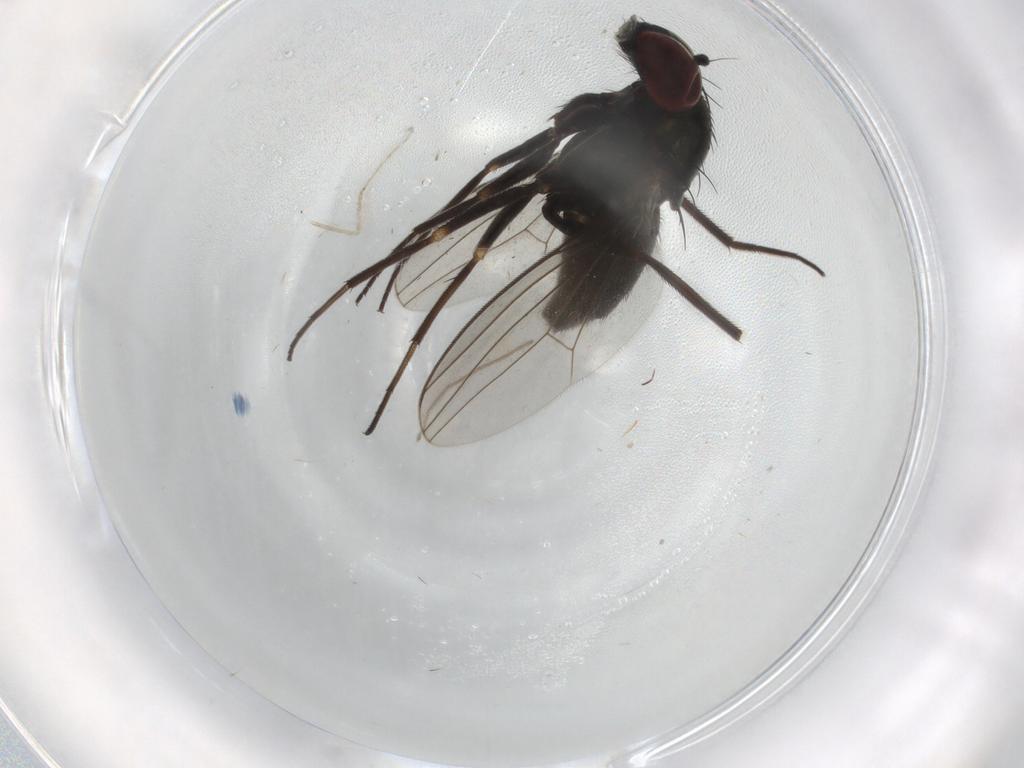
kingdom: Animalia
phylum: Arthropoda
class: Insecta
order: Diptera
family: Dolichopodidae
